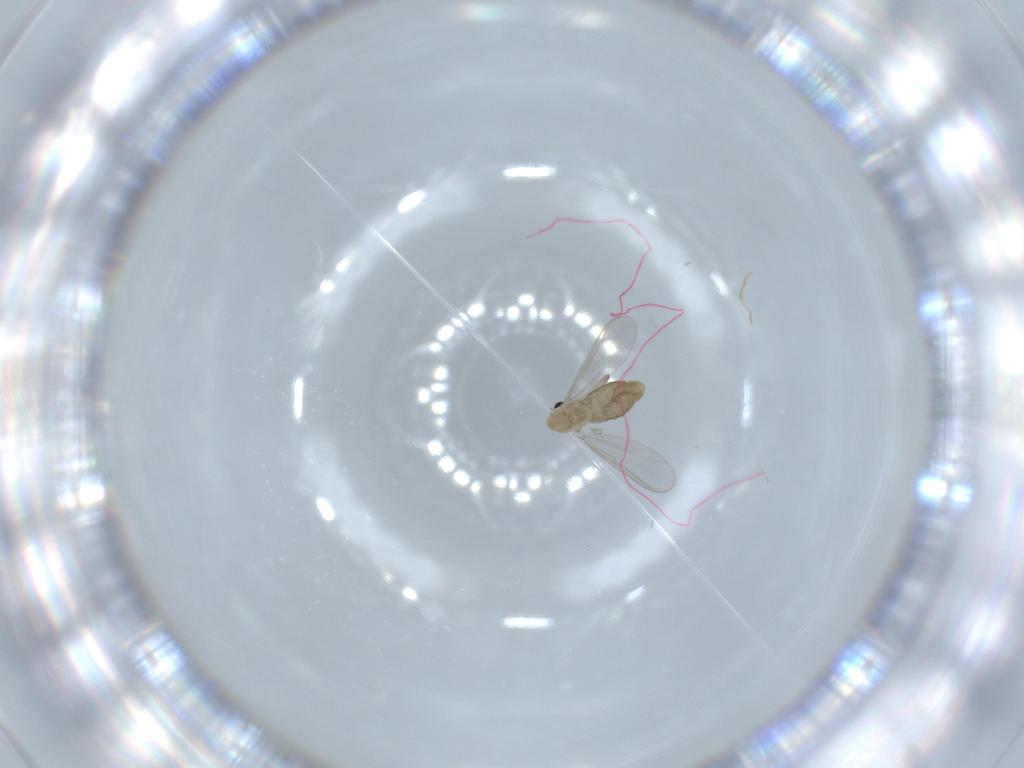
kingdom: Animalia
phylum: Arthropoda
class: Insecta
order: Diptera
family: Chironomidae
